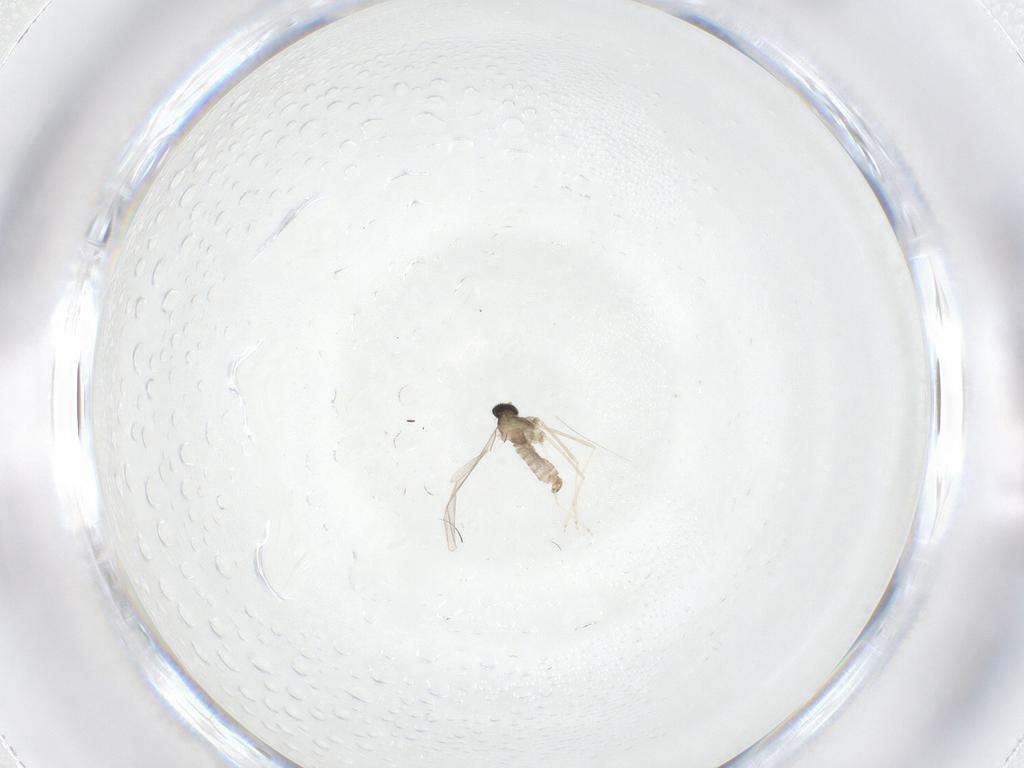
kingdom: Animalia
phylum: Arthropoda
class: Insecta
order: Diptera
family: Cecidomyiidae
